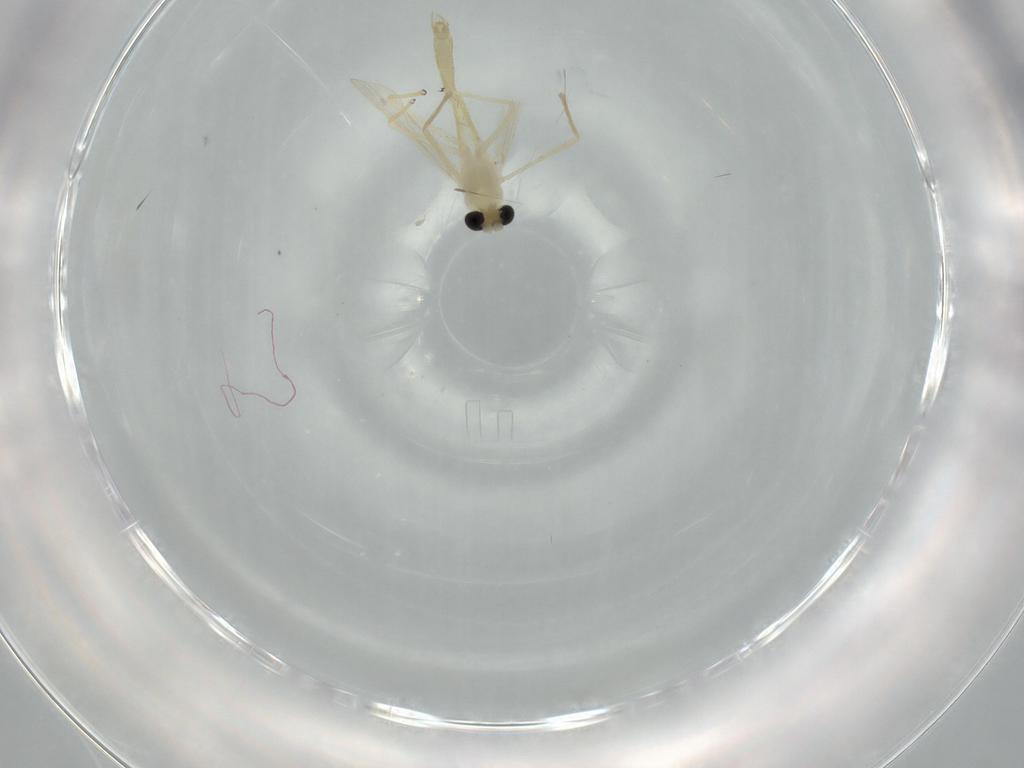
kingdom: Animalia
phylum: Arthropoda
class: Insecta
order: Diptera
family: Chironomidae
